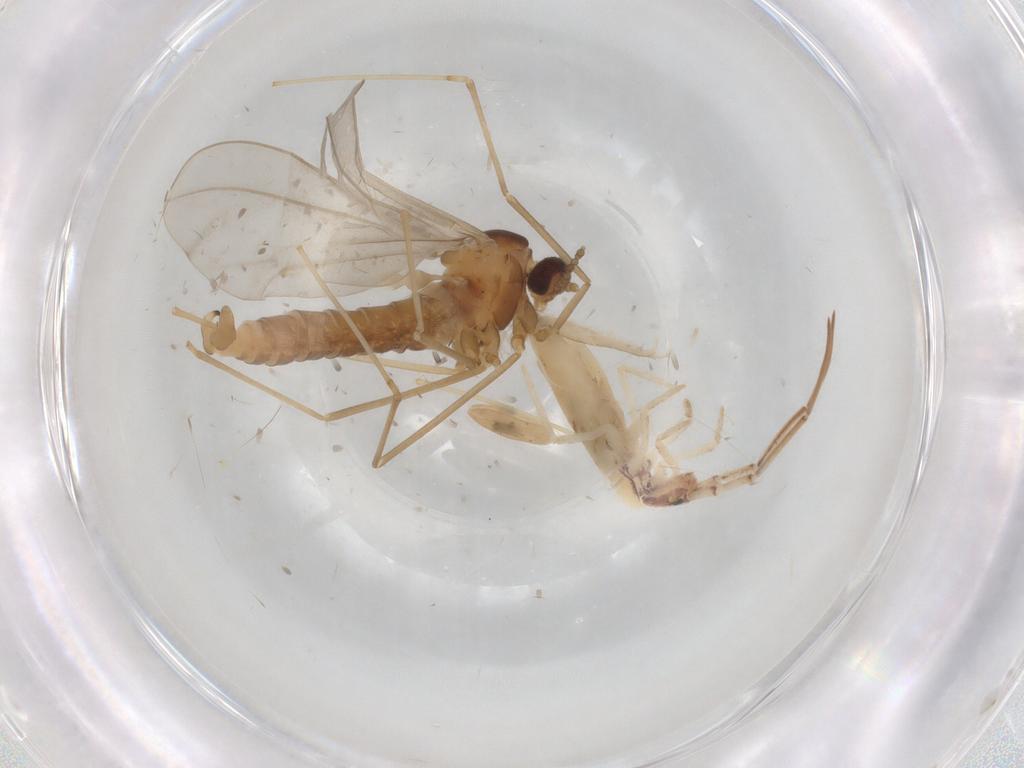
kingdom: Animalia
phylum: Arthropoda
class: Insecta
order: Diptera
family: Cecidomyiidae
